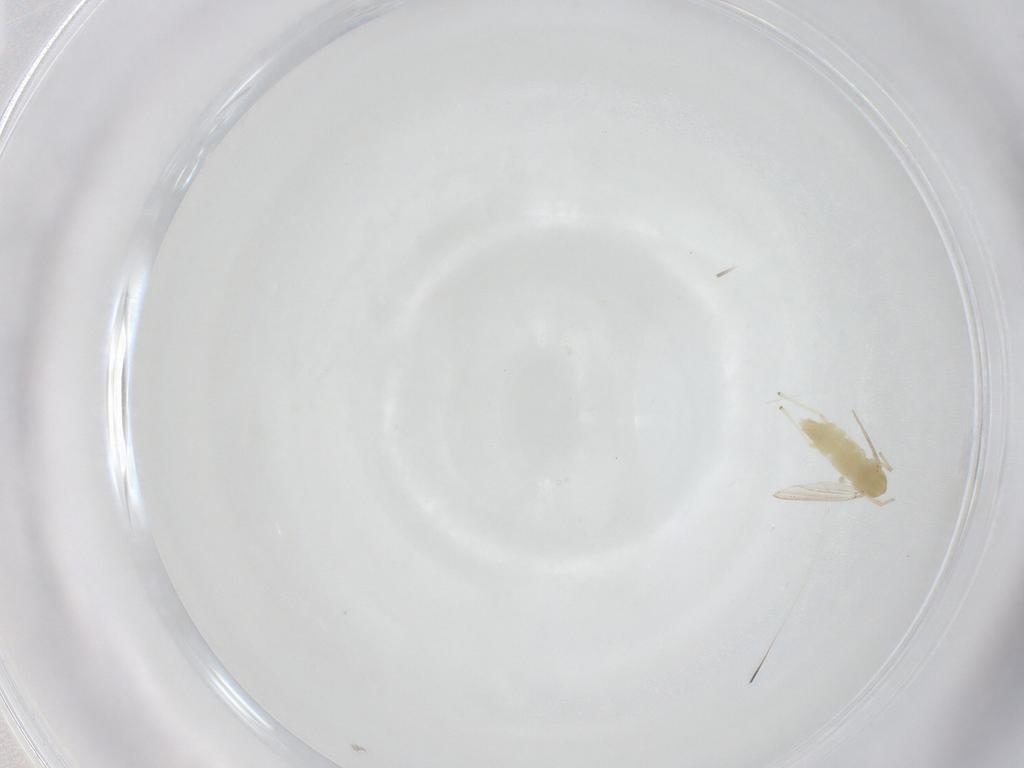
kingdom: Animalia
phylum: Arthropoda
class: Insecta
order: Diptera
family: Chironomidae
